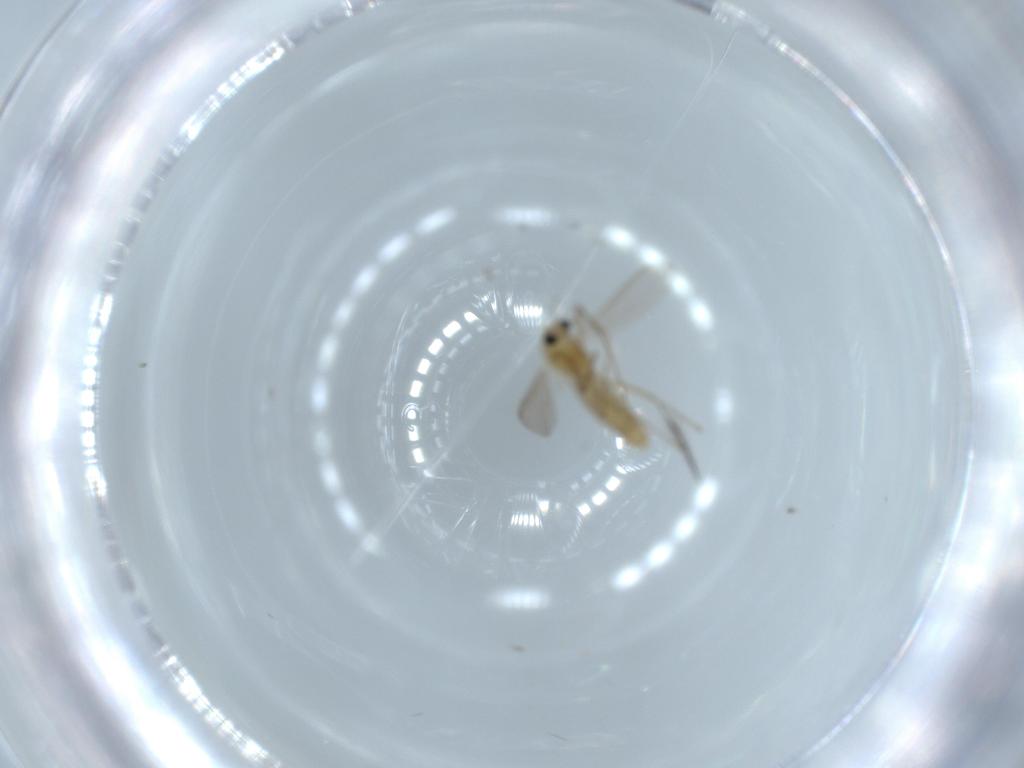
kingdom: Animalia
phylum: Arthropoda
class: Insecta
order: Diptera
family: Chironomidae
